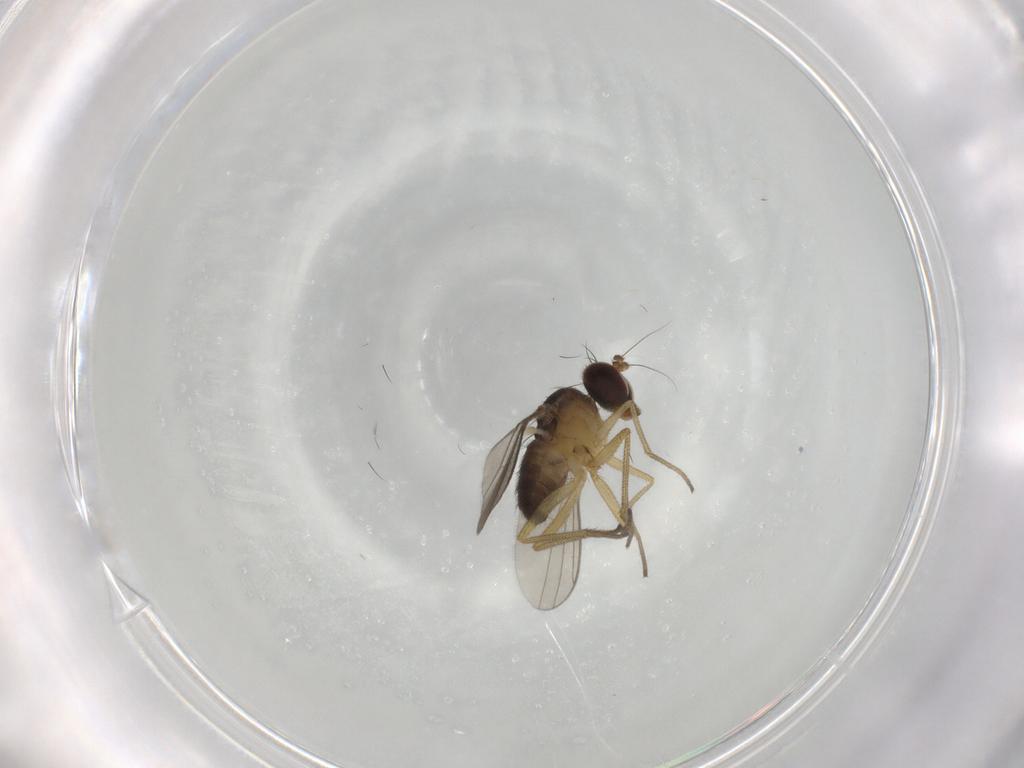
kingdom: Animalia
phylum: Arthropoda
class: Insecta
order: Diptera
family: Dolichopodidae
